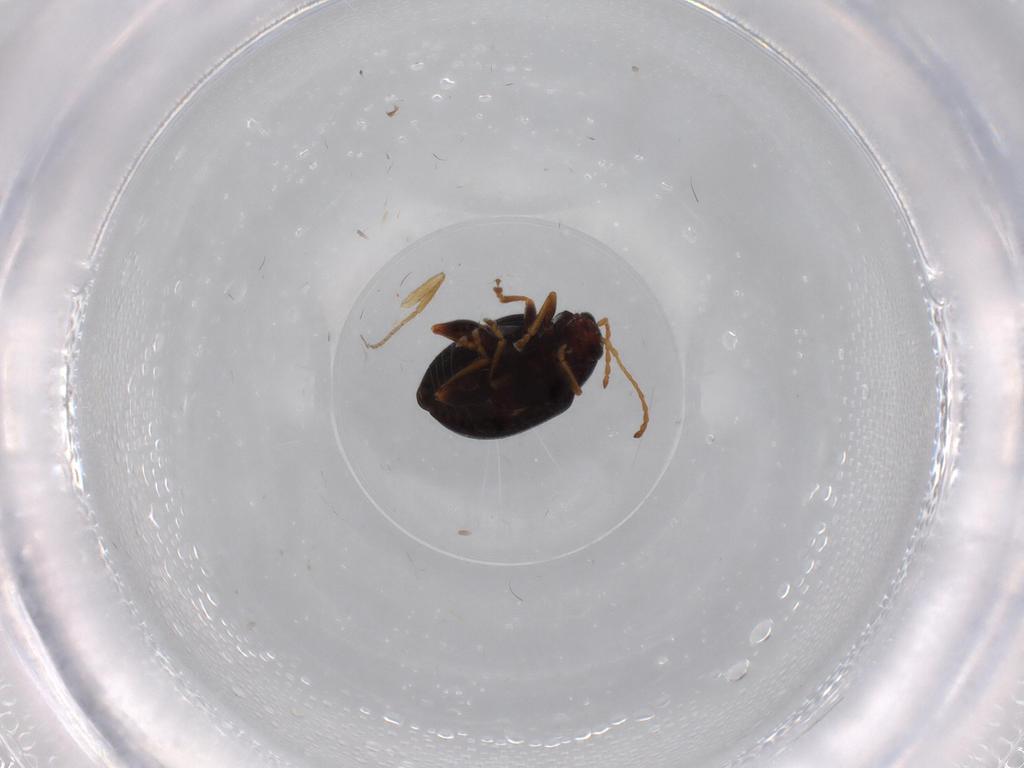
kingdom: Animalia
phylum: Arthropoda
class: Insecta
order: Coleoptera
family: Chrysomelidae
